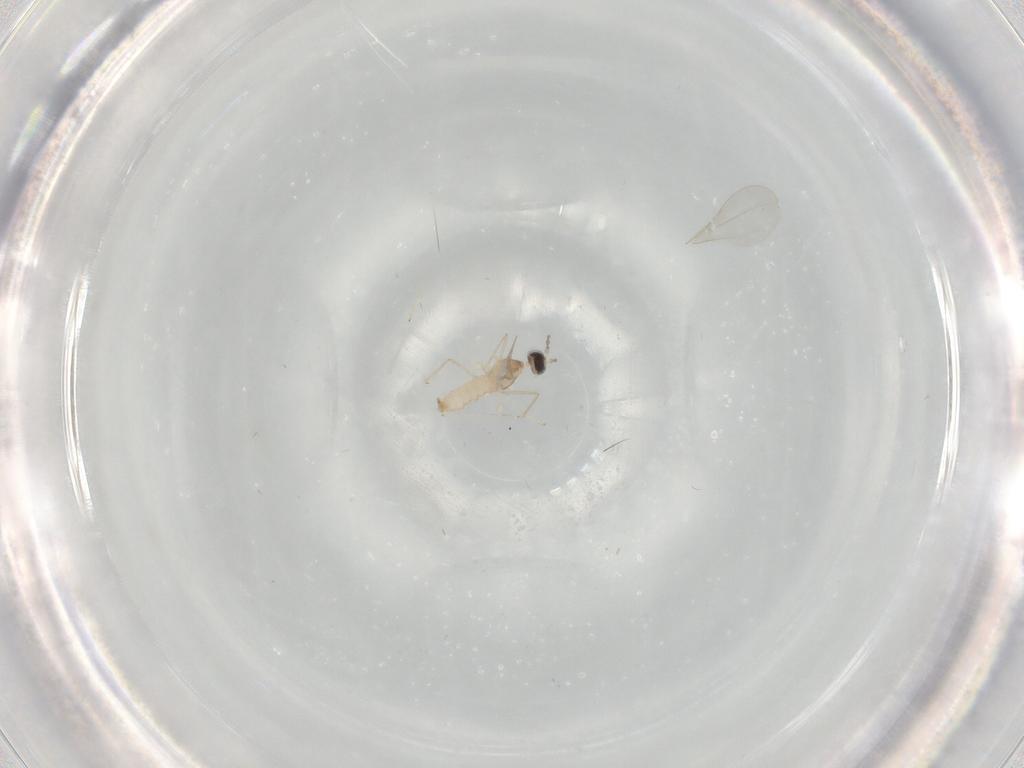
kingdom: Animalia
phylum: Arthropoda
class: Insecta
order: Diptera
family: Cecidomyiidae
